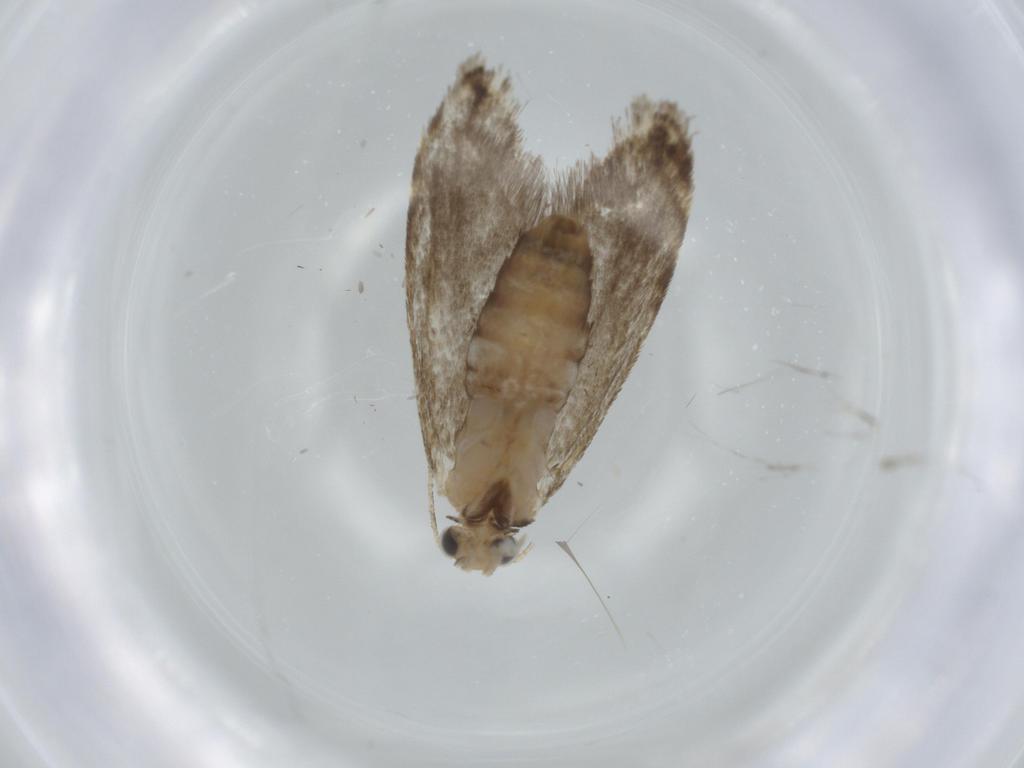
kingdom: Animalia
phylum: Arthropoda
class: Insecta
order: Lepidoptera
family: Tineidae
